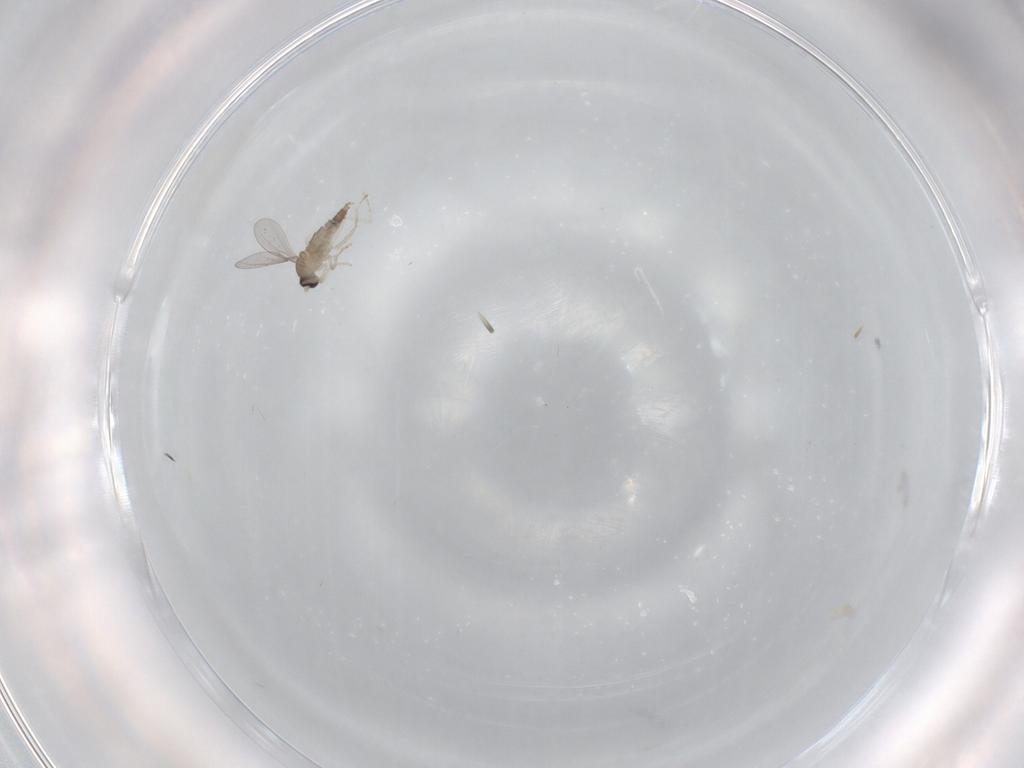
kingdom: Animalia
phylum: Arthropoda
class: Insecta
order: Diptera
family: Cecidomyiidae
